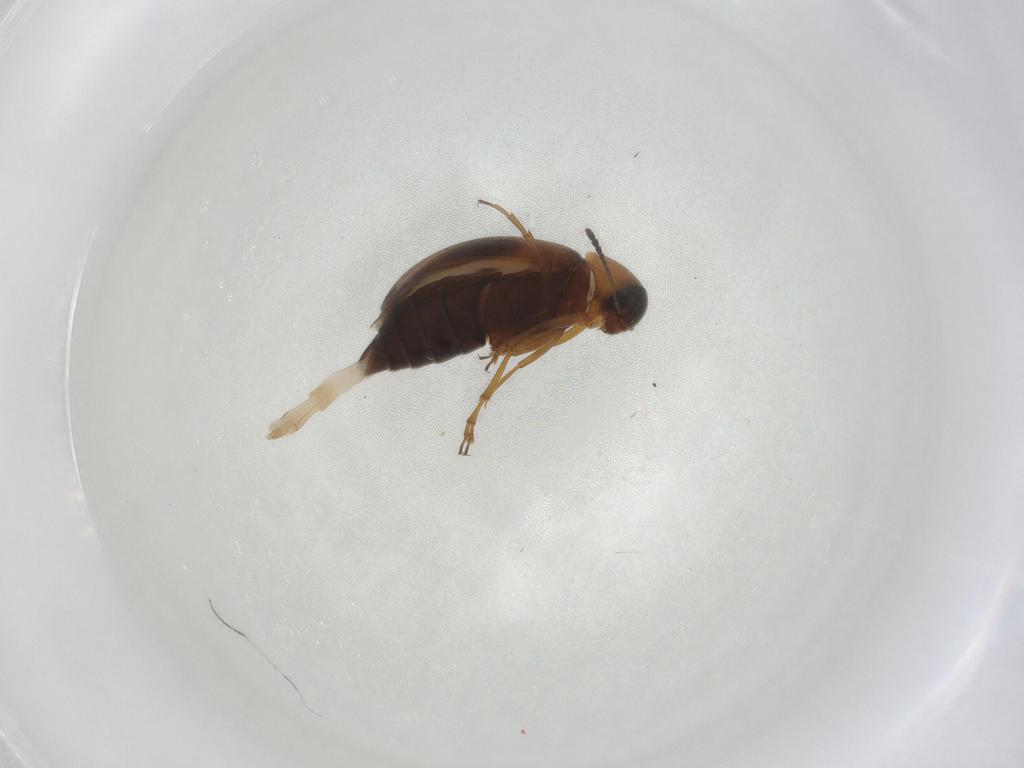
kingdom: Animalia
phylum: Arthropoda
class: Insecta
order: Coleoptera
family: Scraptiidae
